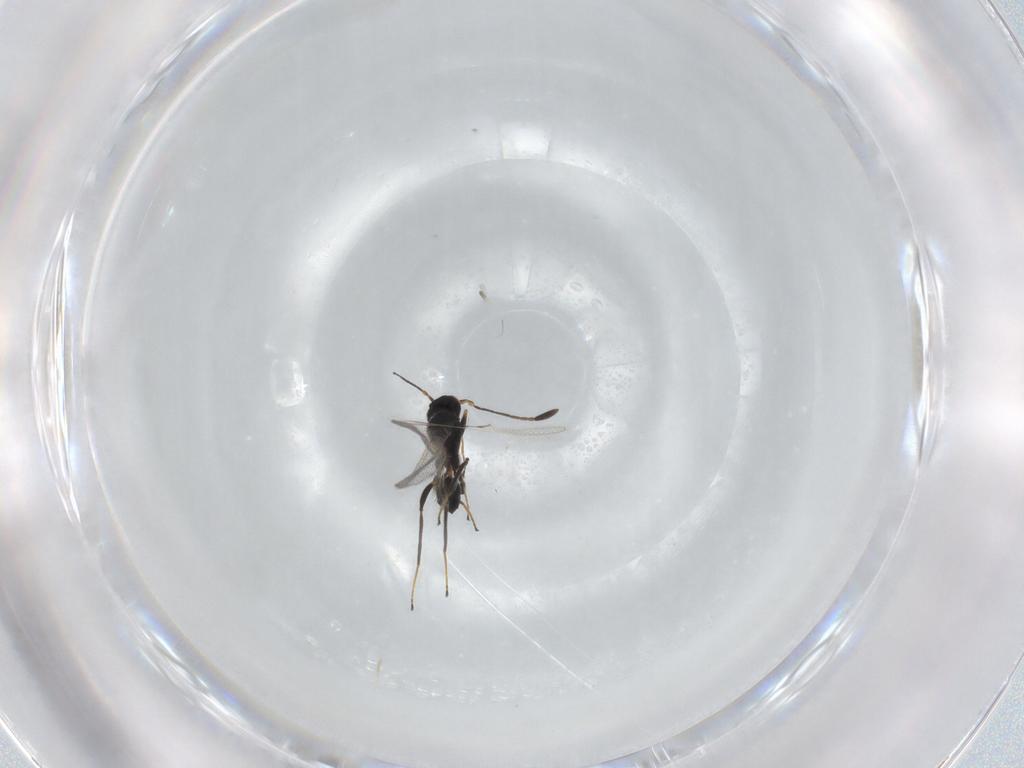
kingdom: Animalia
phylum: Arthropoda
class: Insecta
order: Hymenoptera
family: Mymaridae
